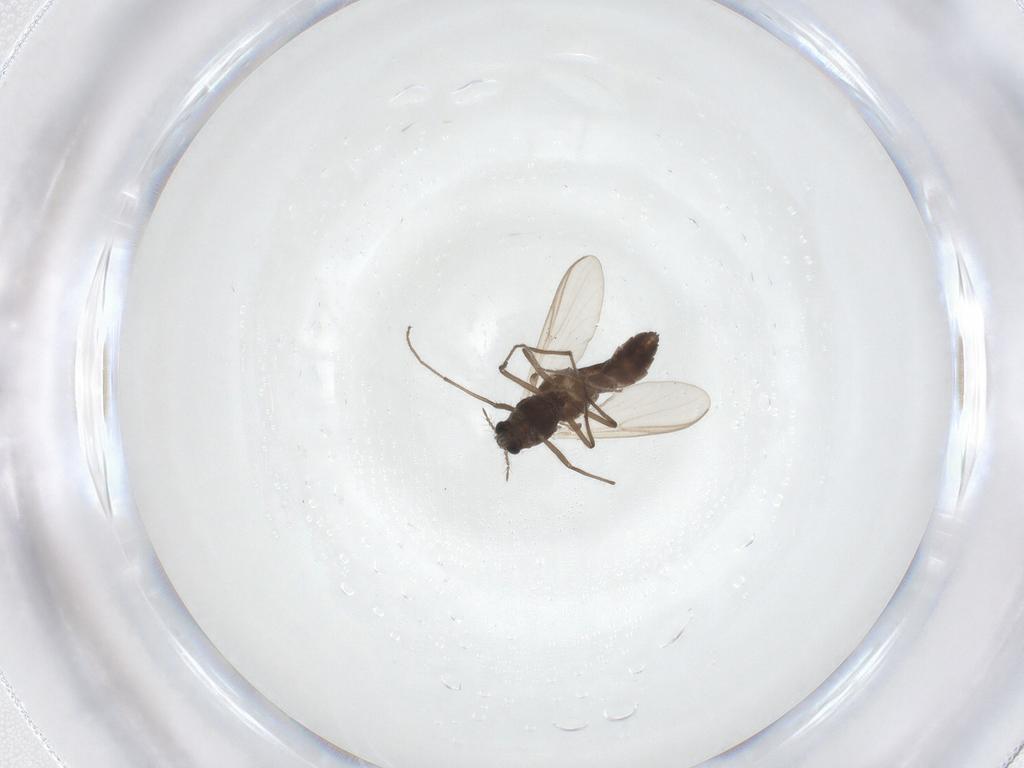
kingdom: Animalia
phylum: Arthropoda
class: Insecta
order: Diptera
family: Chironomidae
